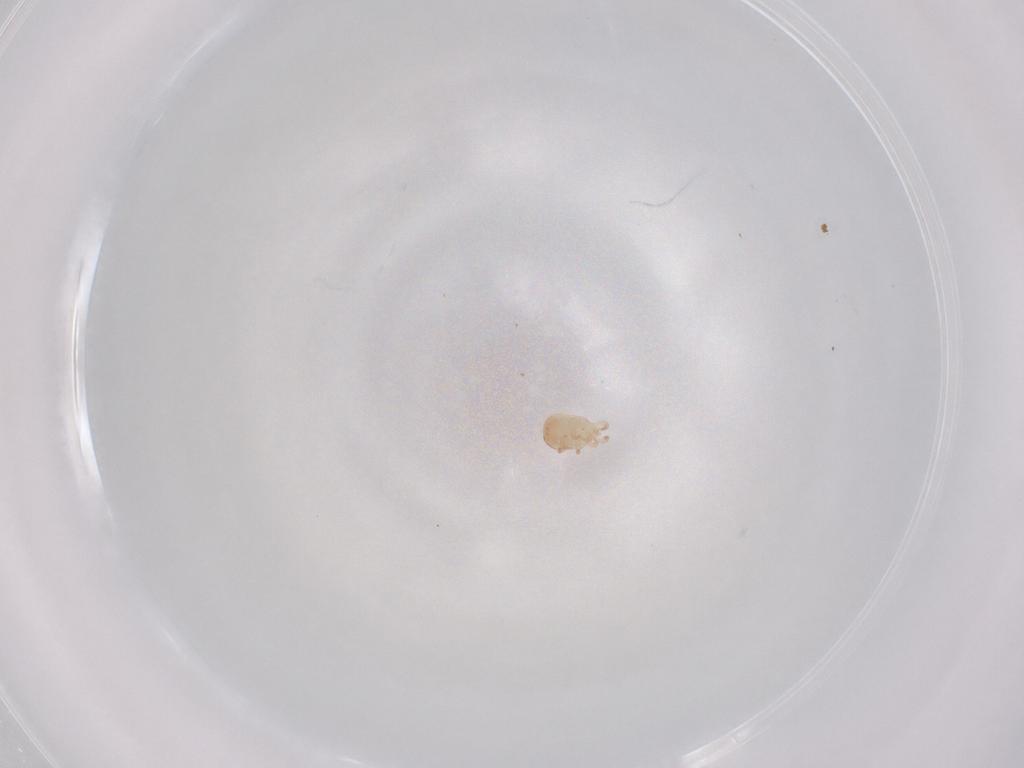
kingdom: Animalia
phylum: Arthropoda
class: Arachnida
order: Mesostigmata
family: Zerconidae
